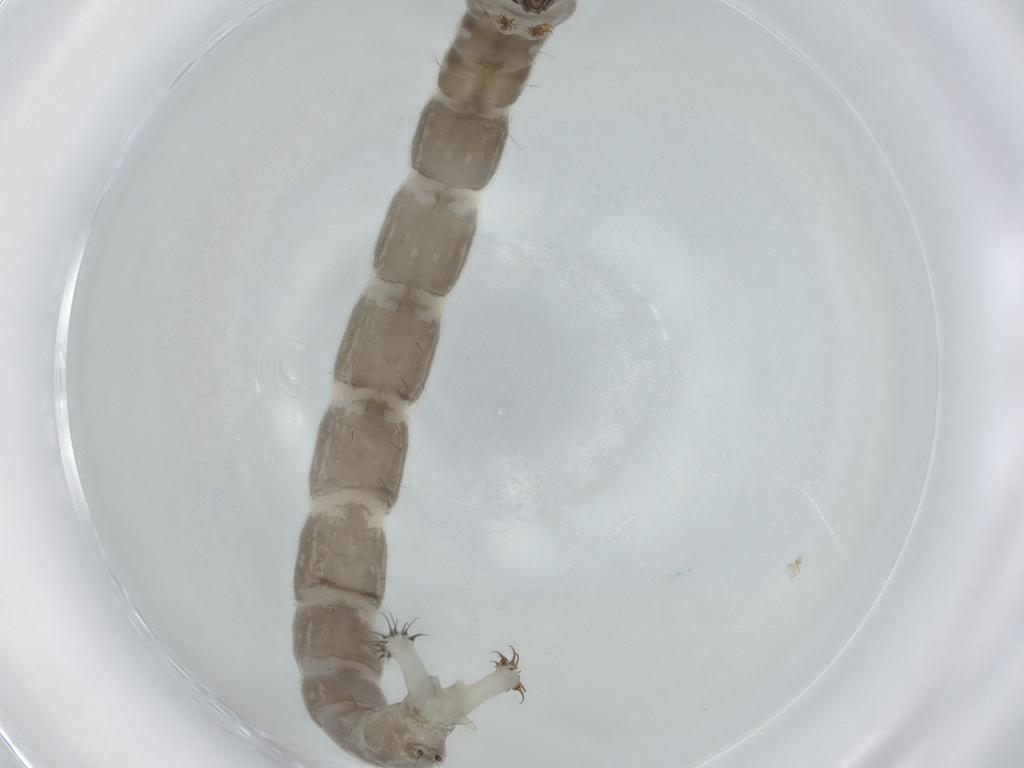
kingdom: Animalia
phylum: Arthropoda
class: Insecta
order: Diptera
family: Chironomidae
